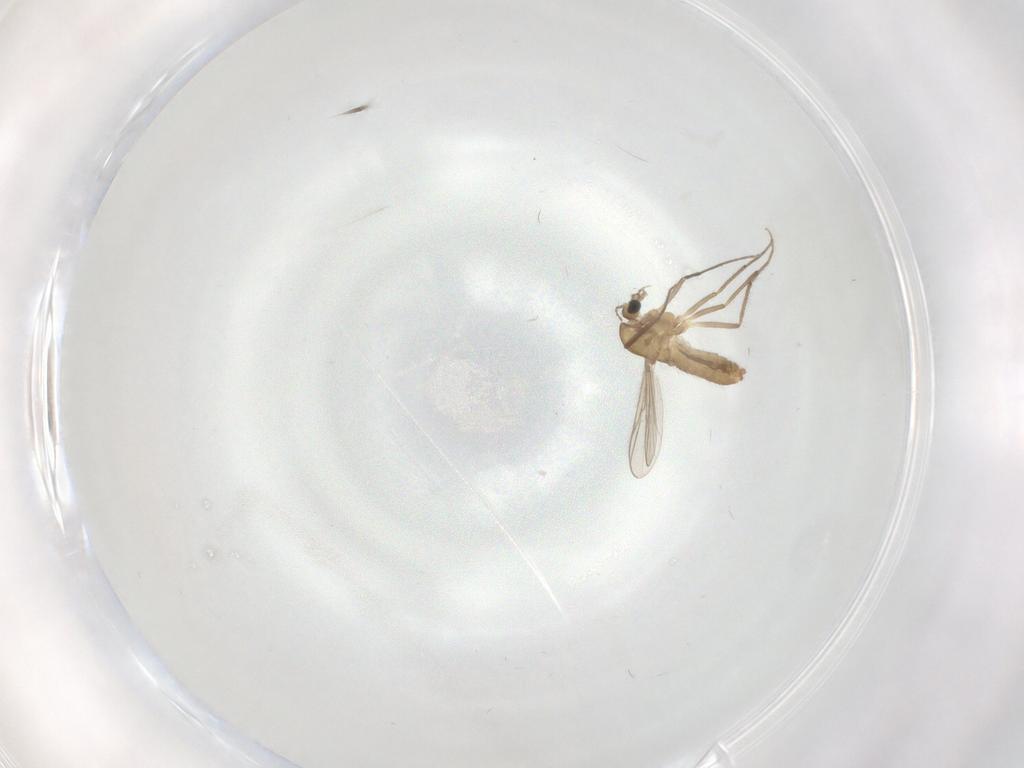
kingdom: Animalia
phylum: Arthropoda
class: Insecta
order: Diptera
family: Chironomidae
